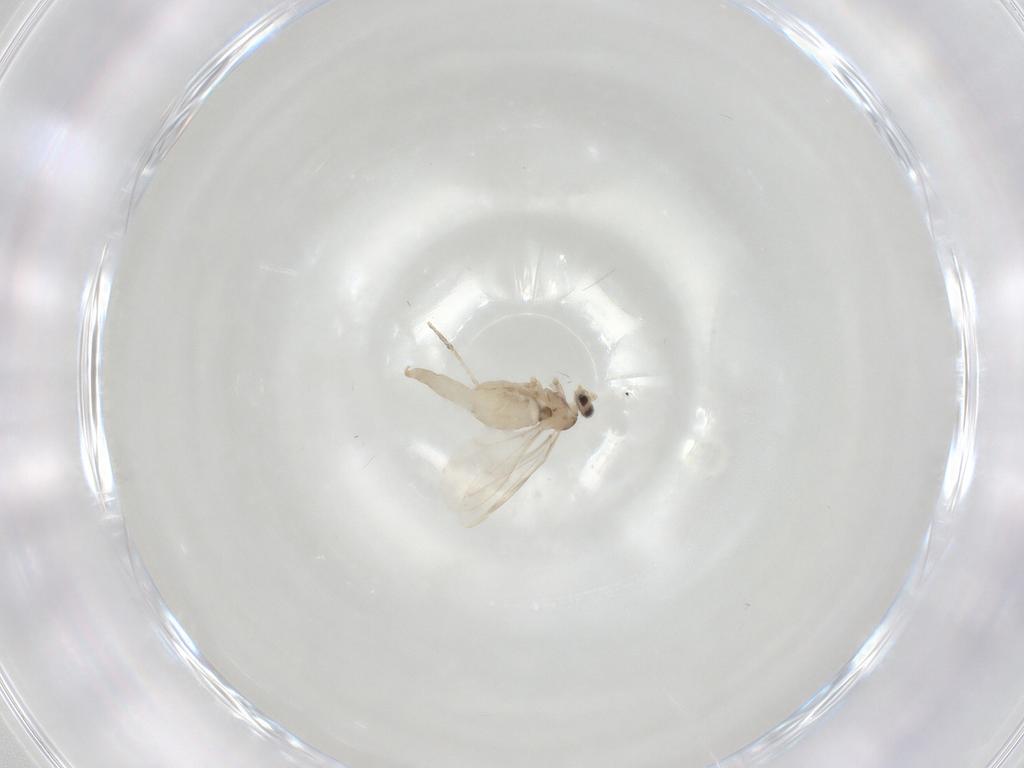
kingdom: Animalia
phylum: Arthropoda
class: Insecta
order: Diptera
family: Cecidomyiidae
